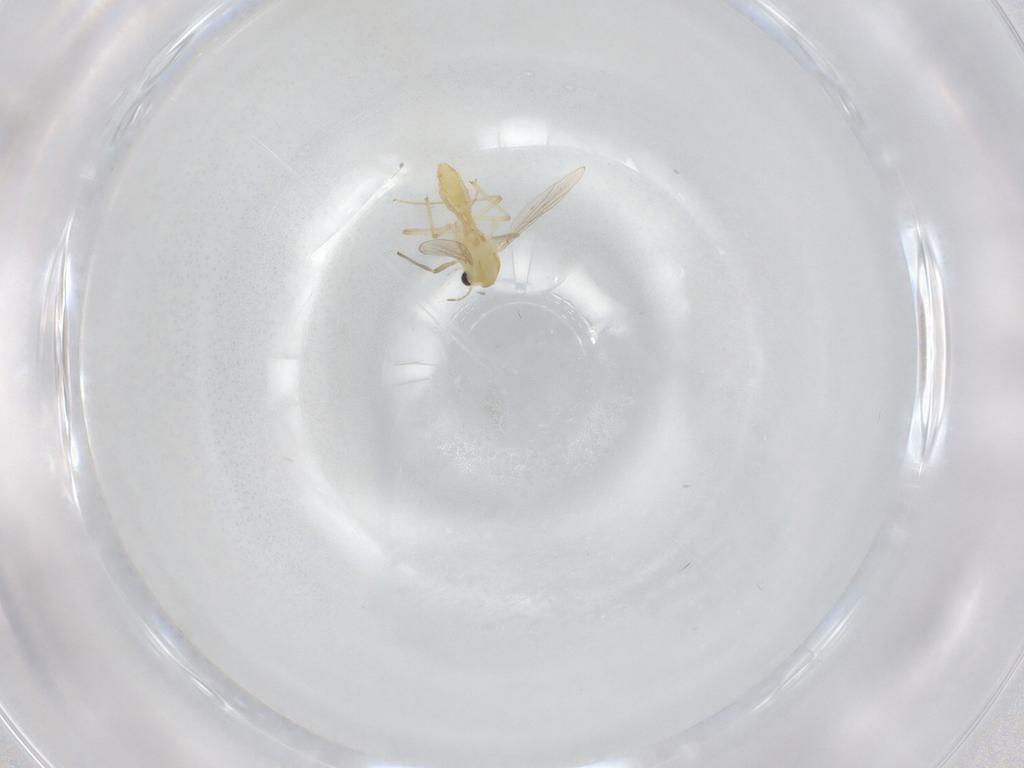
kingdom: Animalia
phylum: Arthropoda
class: Insecta
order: Diptera
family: Chironomidae
